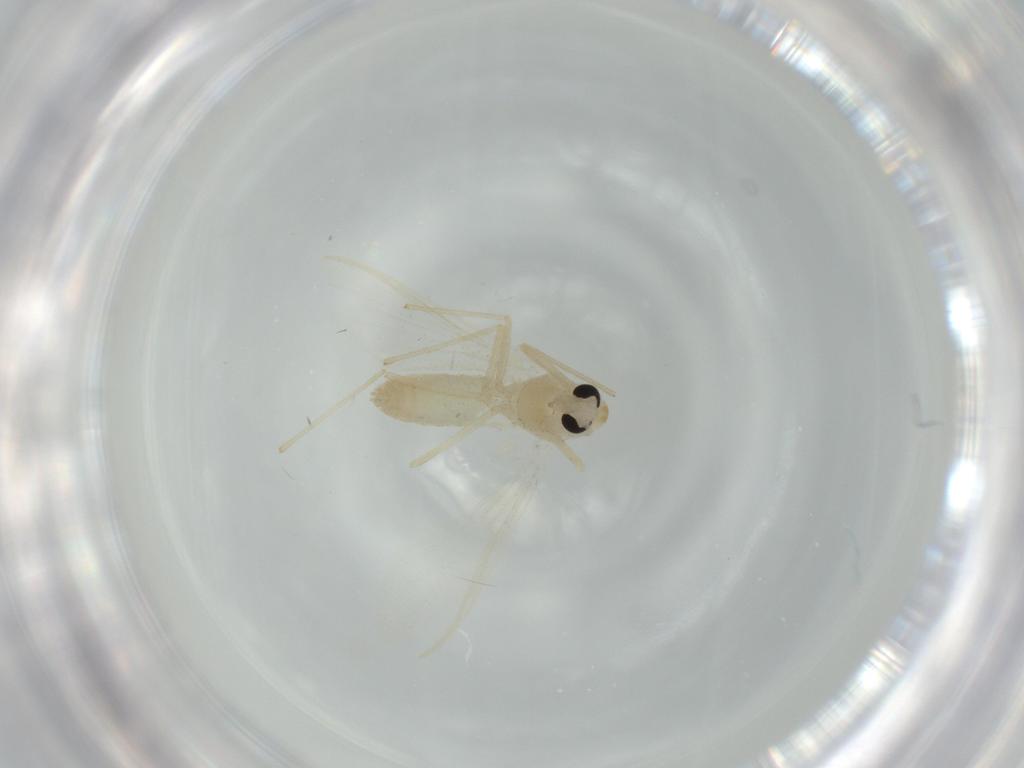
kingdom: Animalia
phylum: Arthropoda
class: Insecta
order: Diptera
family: Chironomidae
